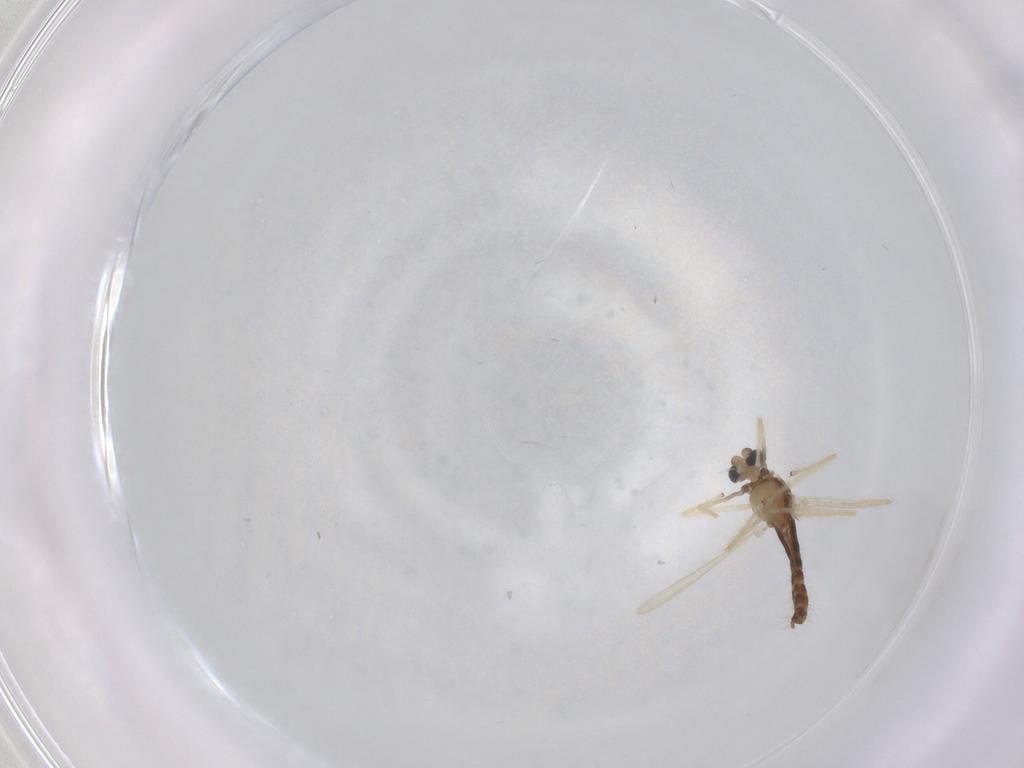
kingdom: Animalia
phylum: Arthropoda
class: Insecta
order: Diptera
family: Chironomidae
